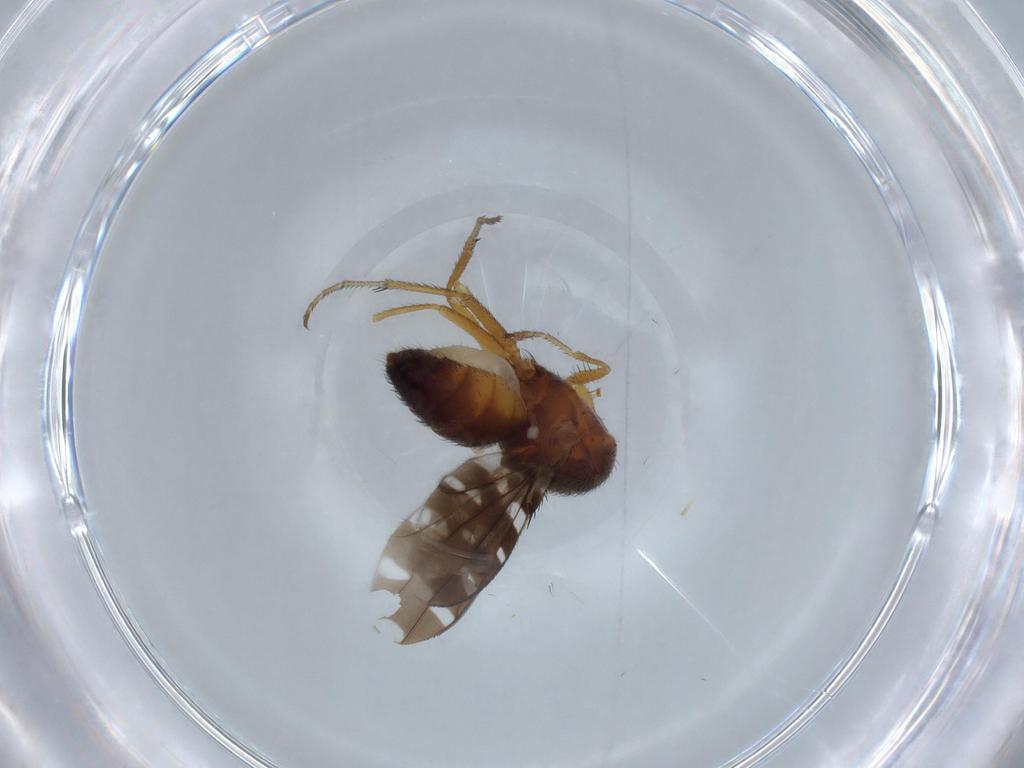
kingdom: Animalia
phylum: Arthropoda
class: Insecta
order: Diptera
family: Ephydridae
